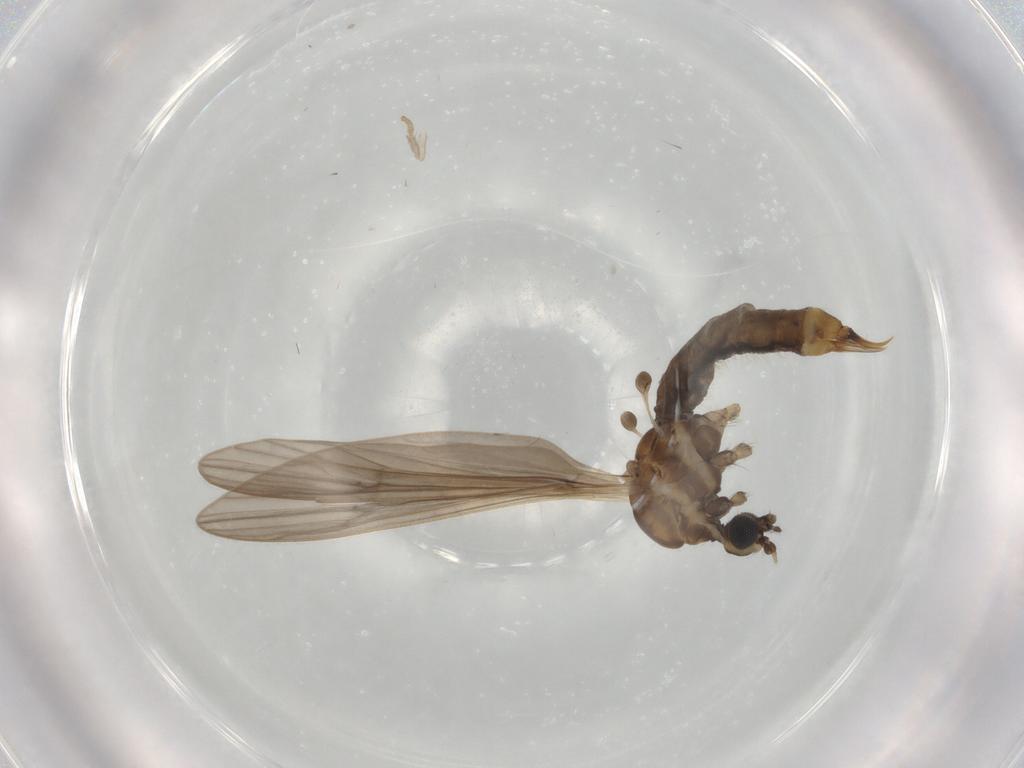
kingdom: Animalia
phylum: Arthropoda
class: Insecta
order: Diptera
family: Limoniidae
